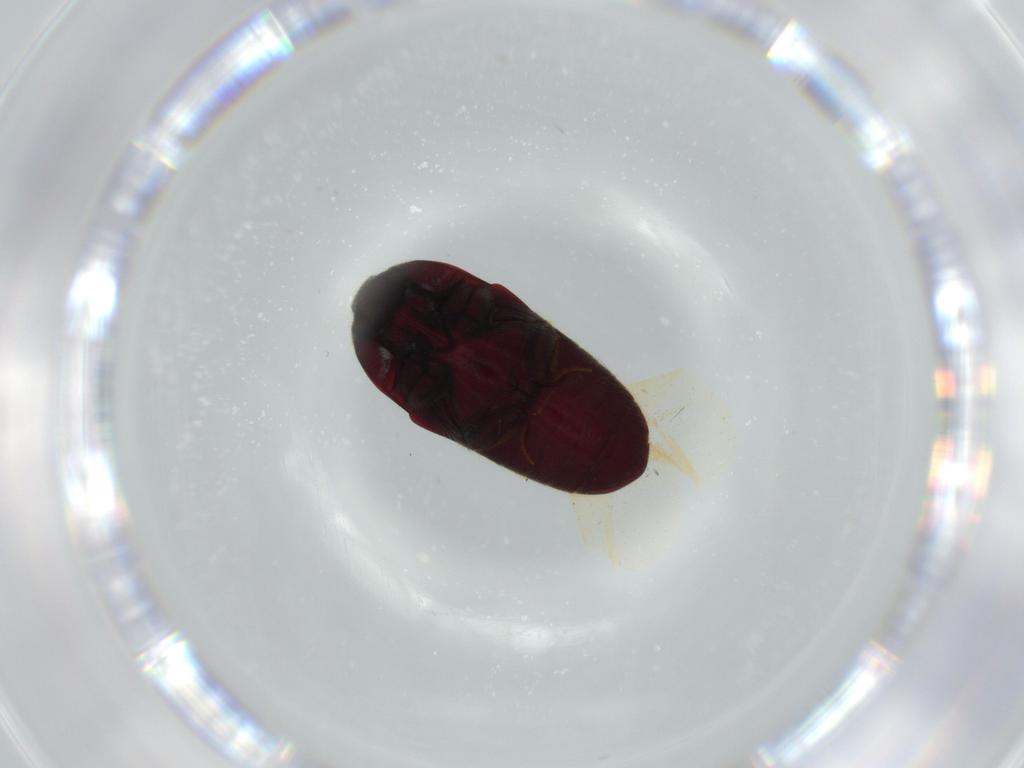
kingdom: Animalia
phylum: Arthropoda
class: Insecta
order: Coleoptera
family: Throscidae
